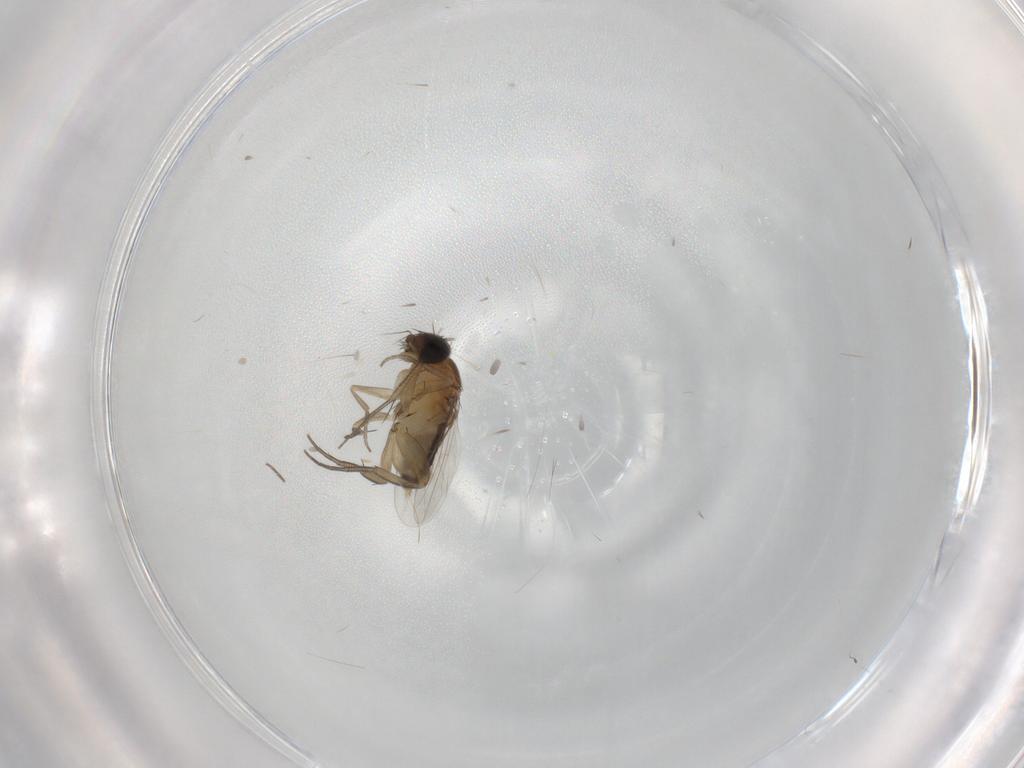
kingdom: Animalia
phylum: Arthropoda
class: Insecta
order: Diptera
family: Phoridae
